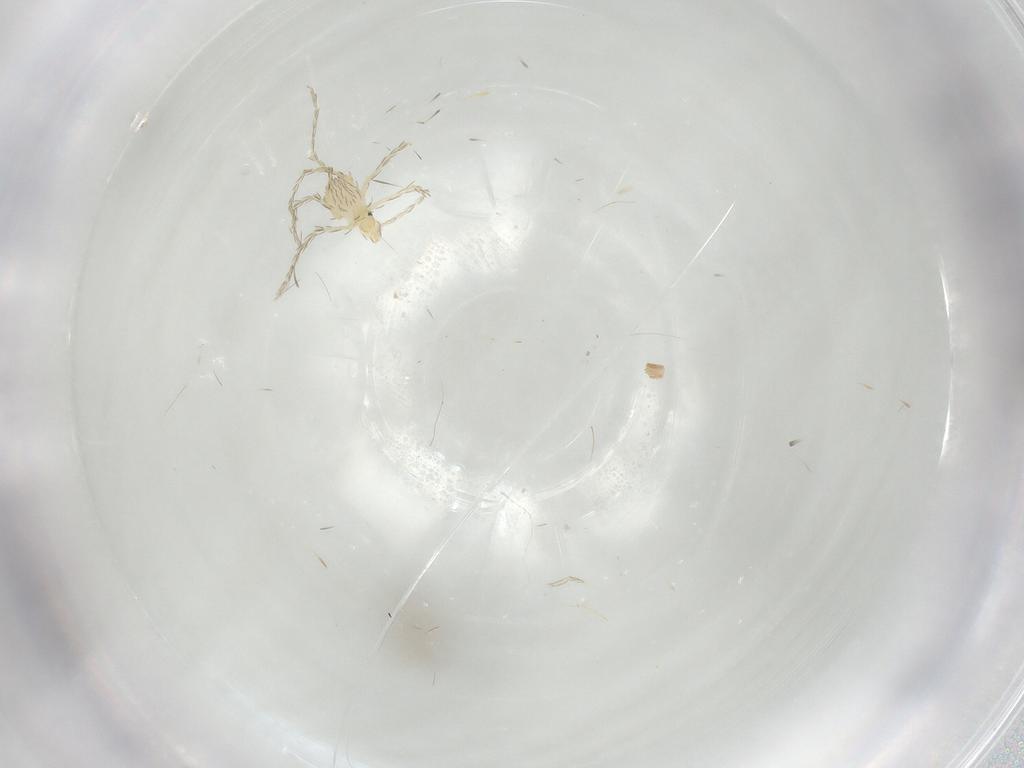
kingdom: Animalia
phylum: Arthropoda
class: Arachnida
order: Trombidiformes
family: Erythraeidae
